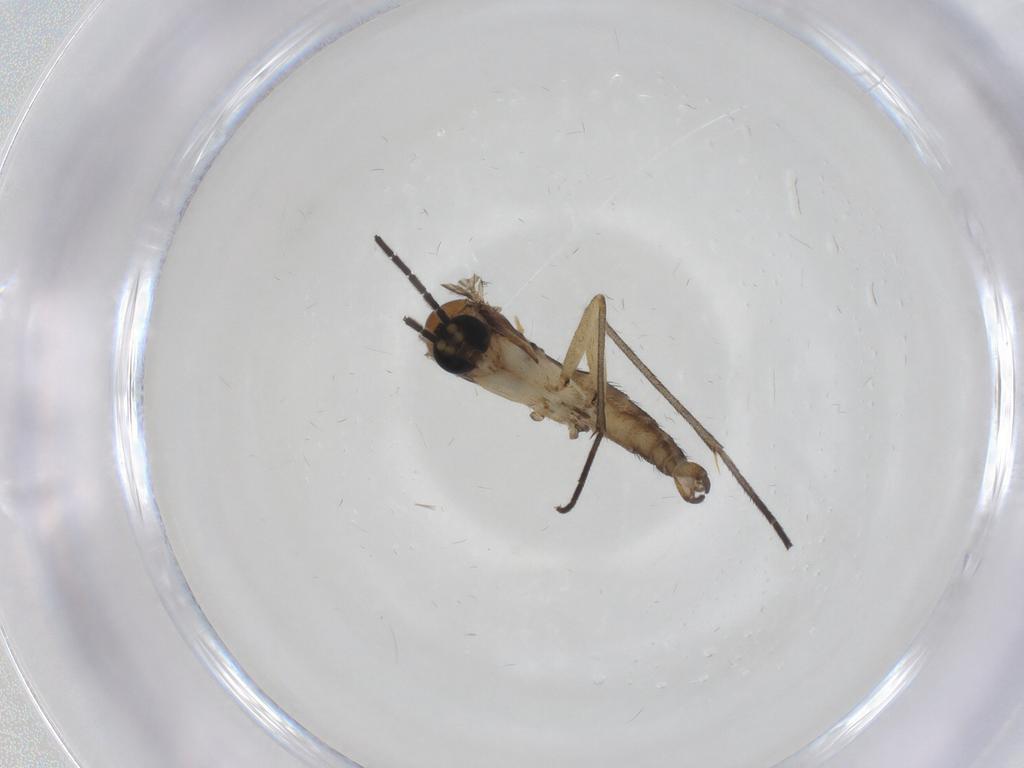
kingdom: Animalia
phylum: Arthropoda
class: Insecta
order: Diptera
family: Sciaridae
